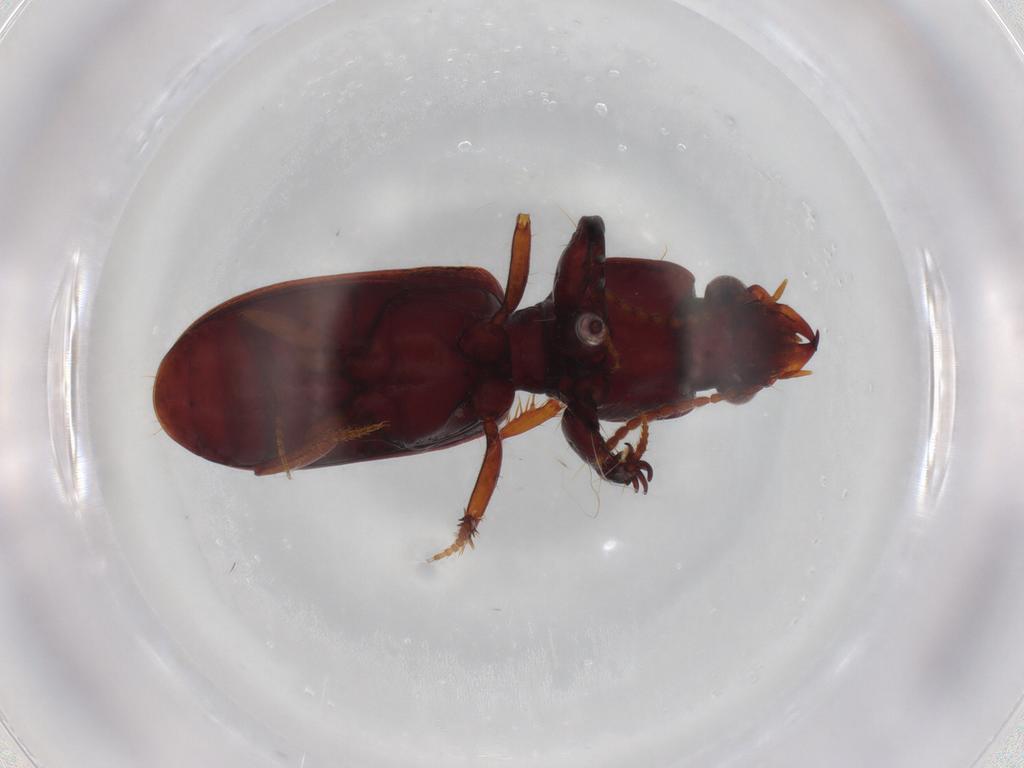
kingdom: Animalia
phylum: Arthropoda
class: Insecta
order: Coleoptera
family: Carabidae
